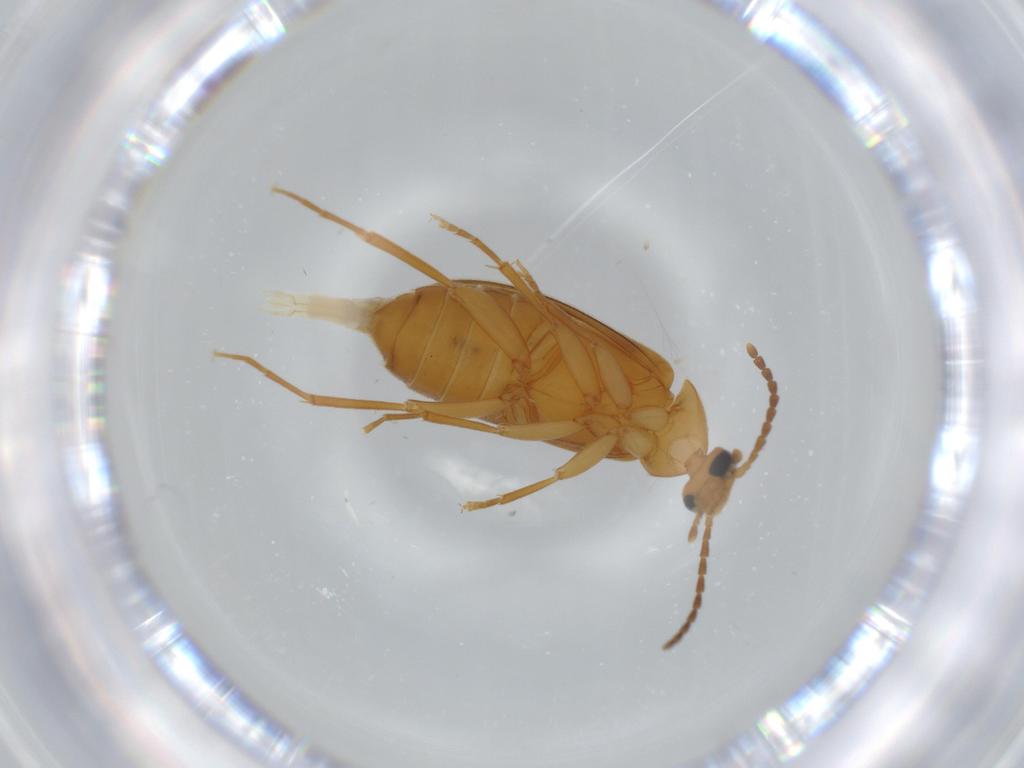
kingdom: Animalia
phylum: Arthropoda
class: Insecta
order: Coleoptera
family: Scraptiidae
